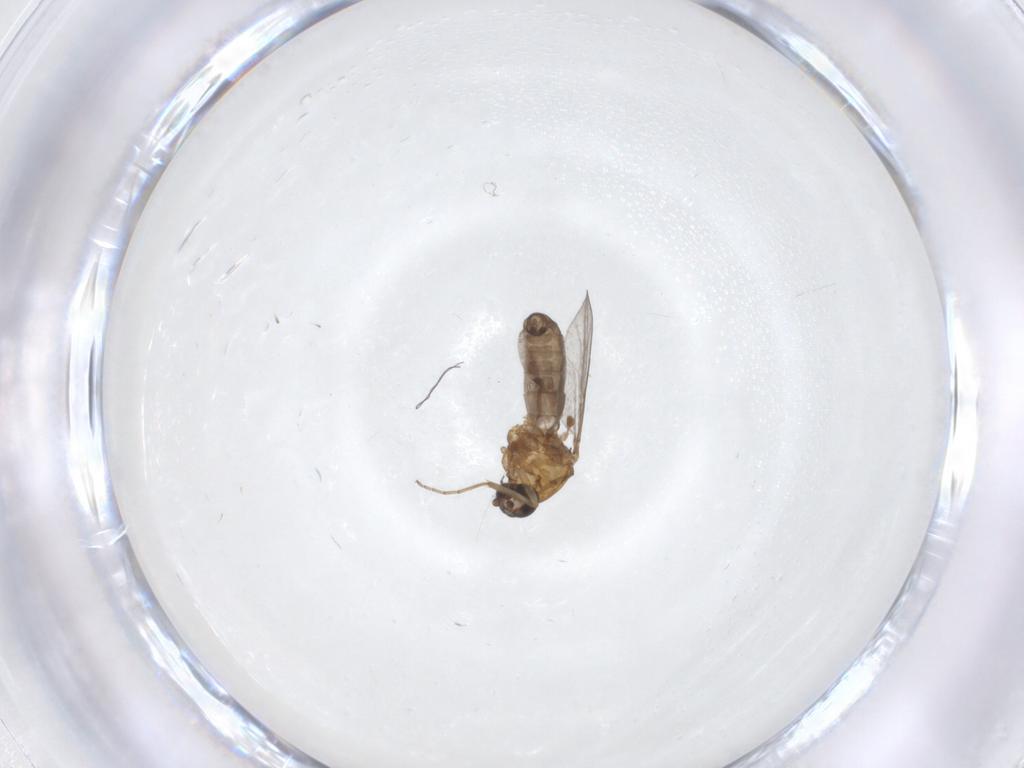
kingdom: Animalia
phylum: Arthropoda
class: Insecta
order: Diptera
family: Ceratopogonidae
